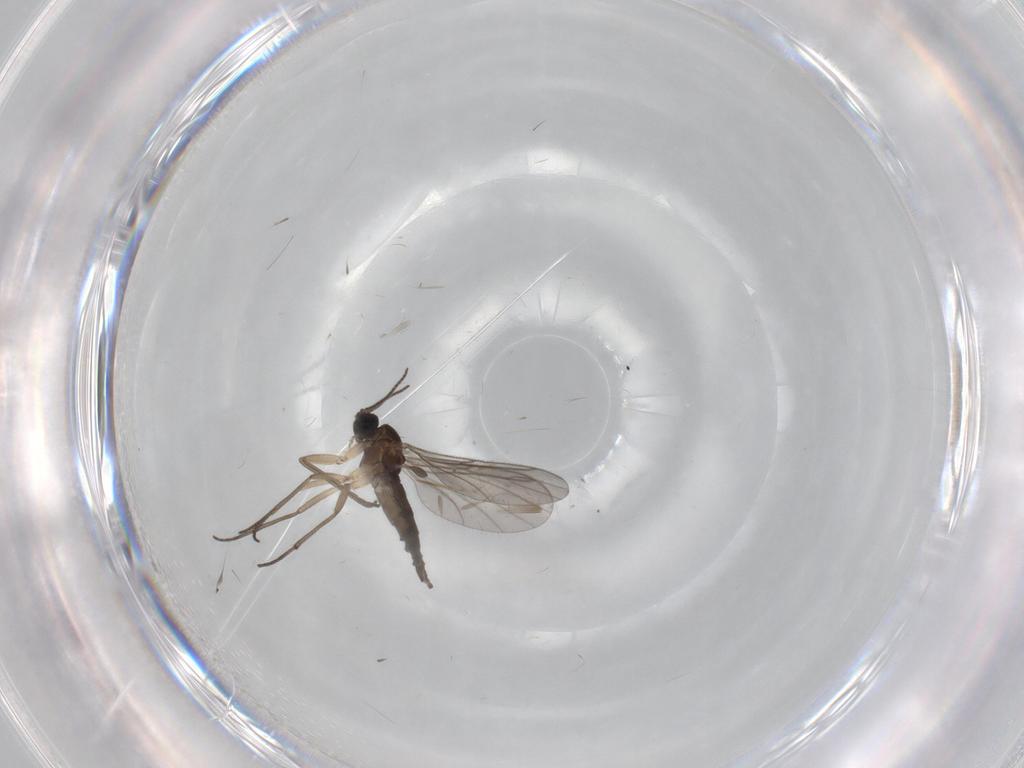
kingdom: Animalia
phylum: Arthropoda
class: Insecta
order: Diptera
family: Sciaridae
